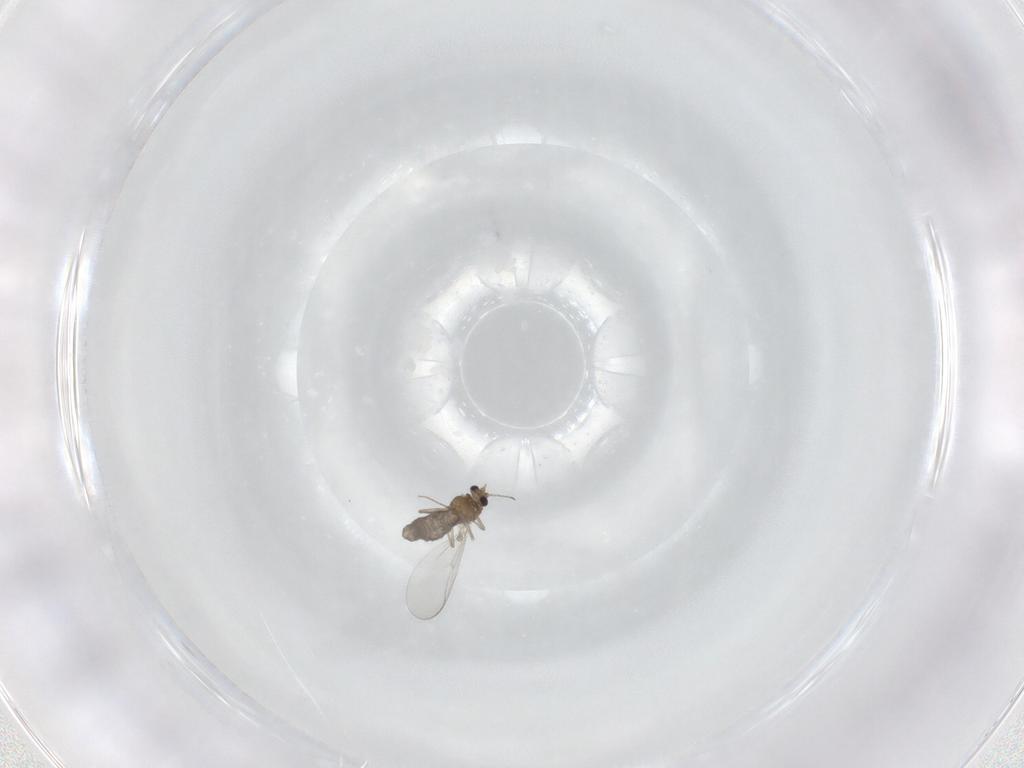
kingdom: Animalia
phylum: Arthropoda
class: Insecta
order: Diptera
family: Chironomidae
